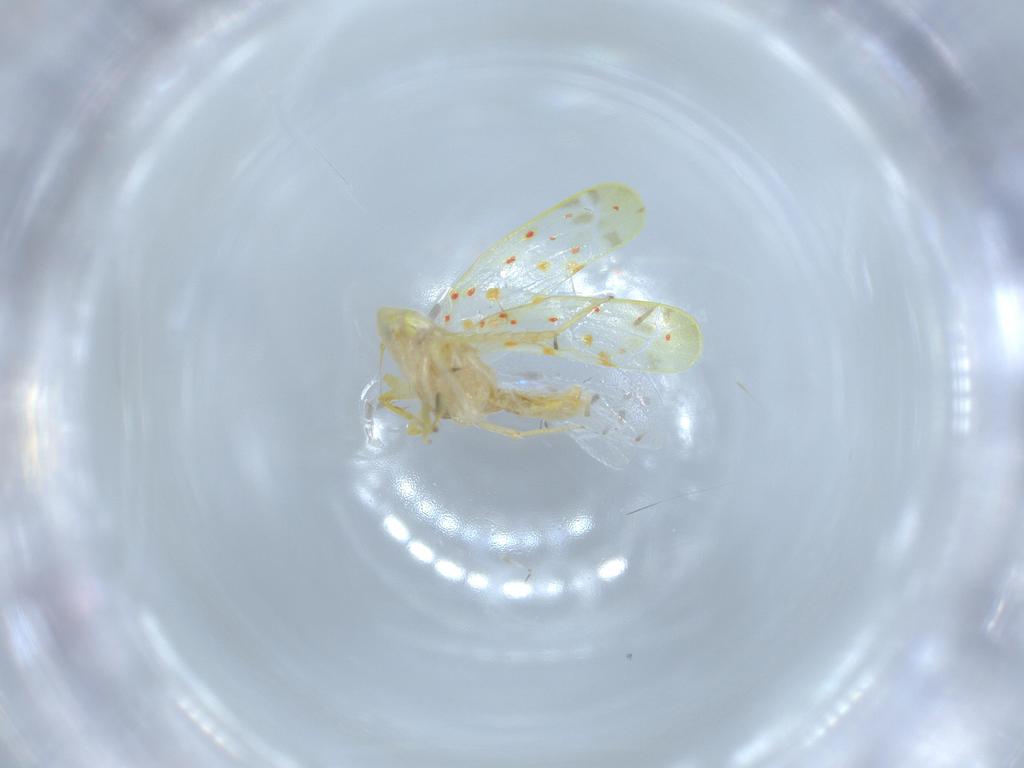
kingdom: Animalia
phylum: Arthropoda
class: Insecta
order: Hemiptera
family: Cicadellidae
